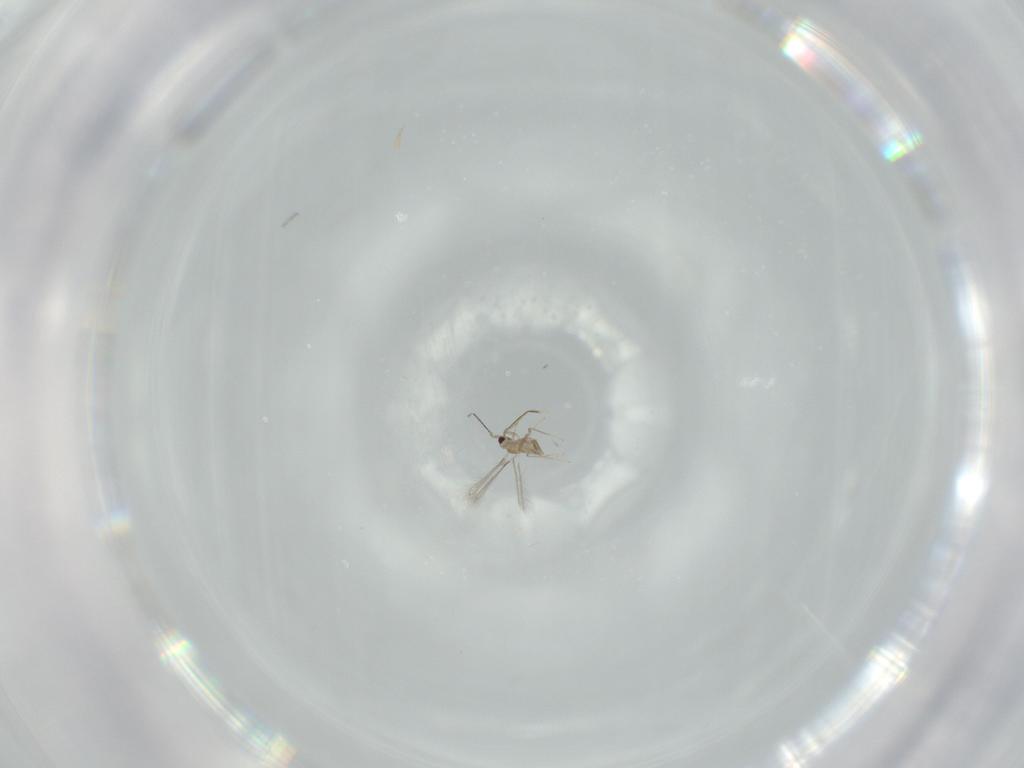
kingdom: Animalia
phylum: Arthropoda
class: Insecta
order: Hymenoptera
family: Mymaridae
